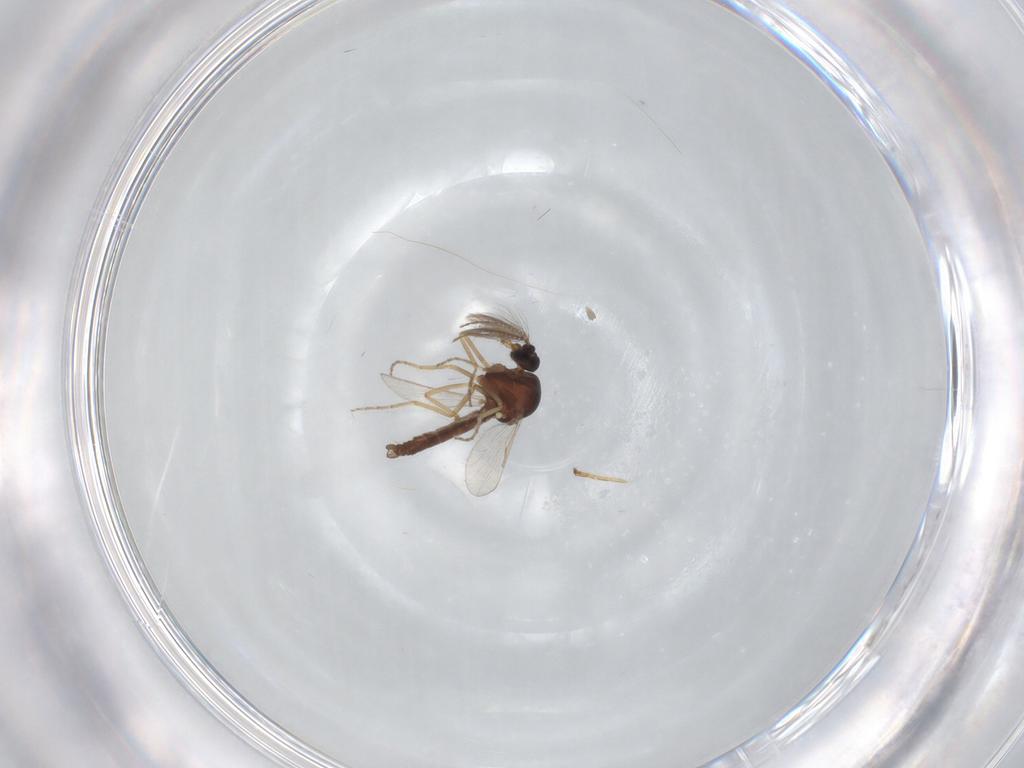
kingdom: Animalia
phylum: Arthropoda
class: Insecta
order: Diptera
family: Ceratopogonidae
